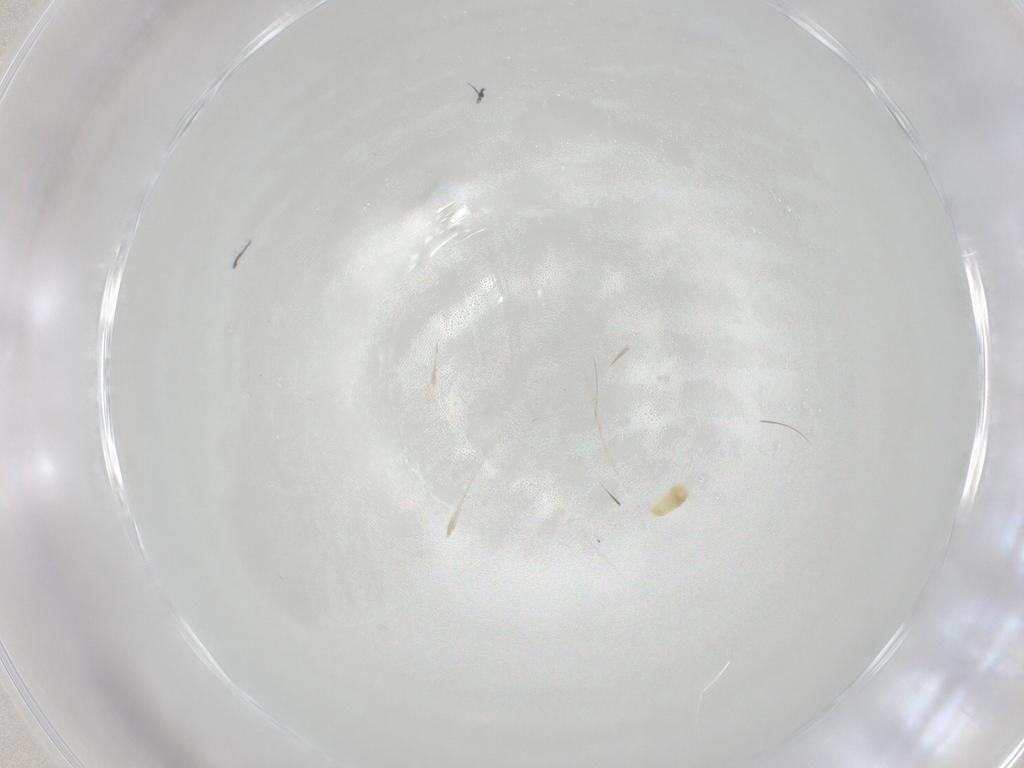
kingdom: Animalia
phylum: Arthropoda
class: Arachnida
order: Trombidiformes
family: Eupodidae
